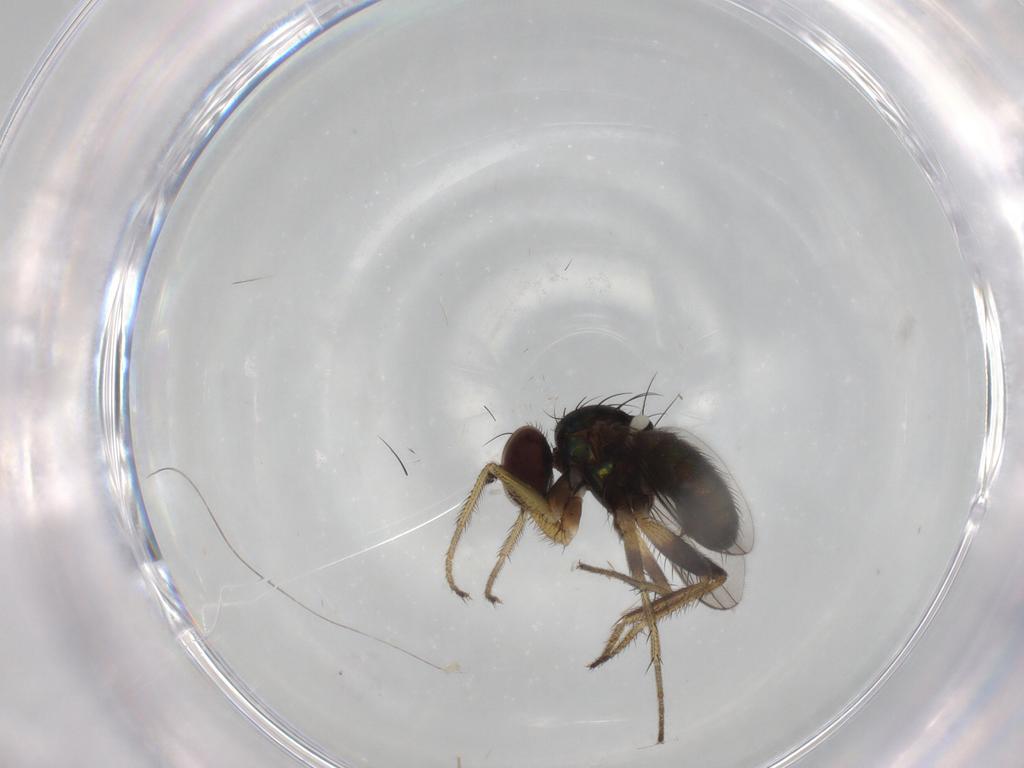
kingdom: Animalia
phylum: Arthropoda
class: Insecta
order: Diptera
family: Dolichopodidae
